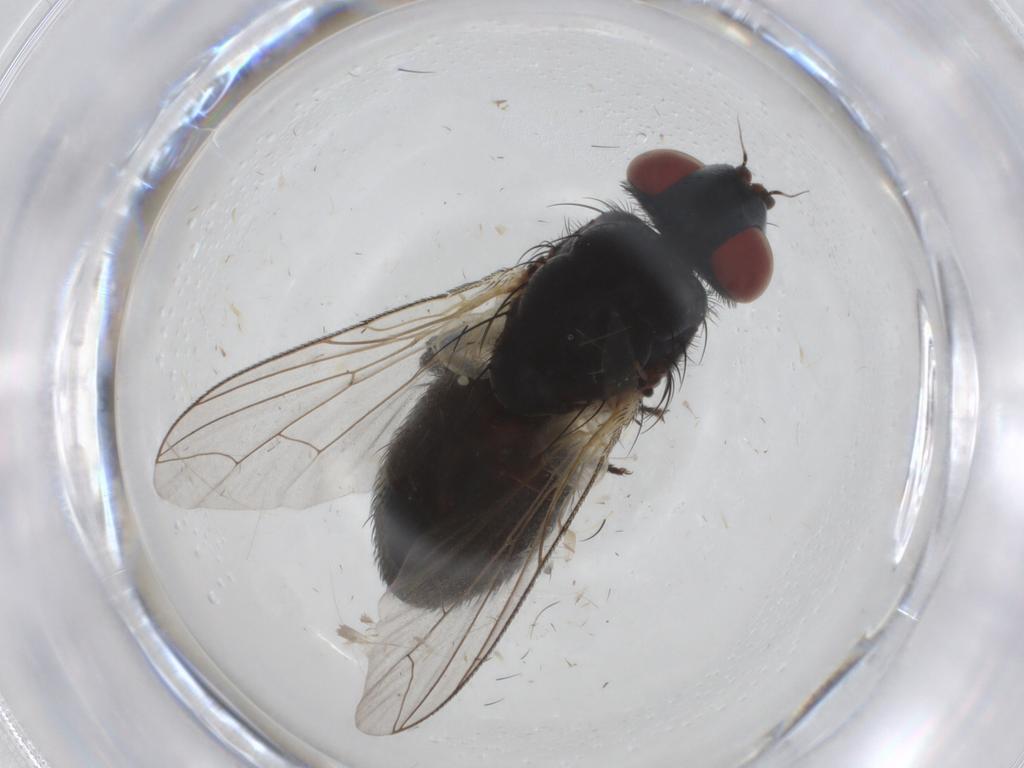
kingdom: Animalia
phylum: Arthropoda
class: Insecta
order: Diptera
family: Sarcophagidae
